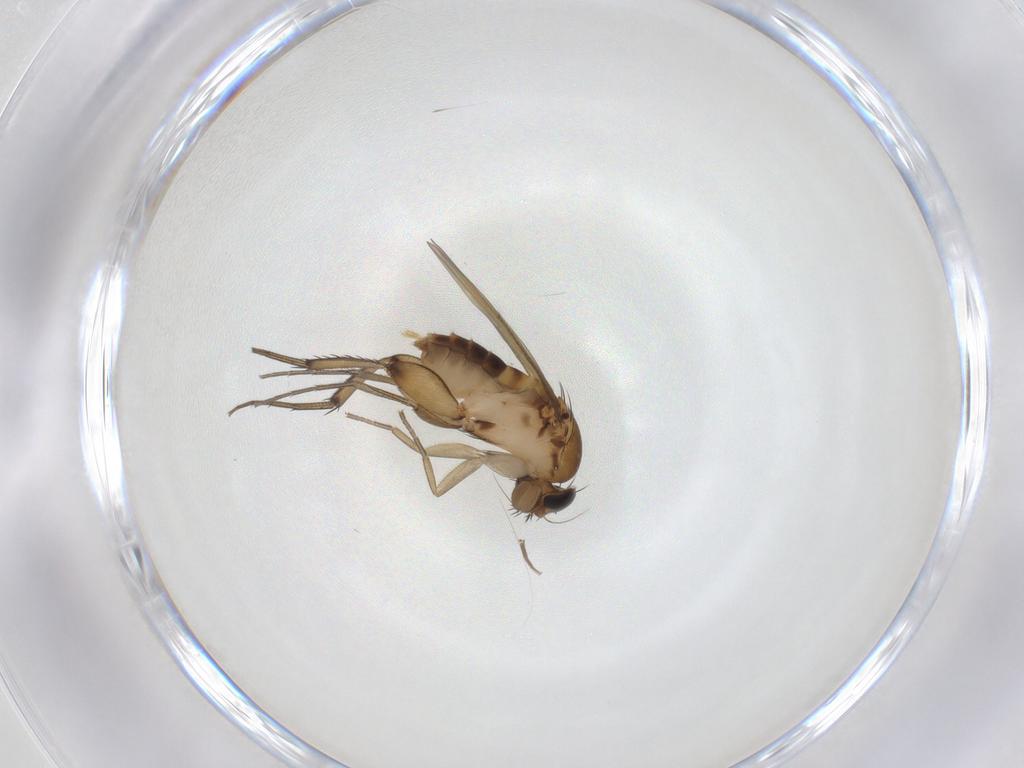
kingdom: Animalia
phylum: Arthropoda
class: Insecta
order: Diptera
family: Phoridae
